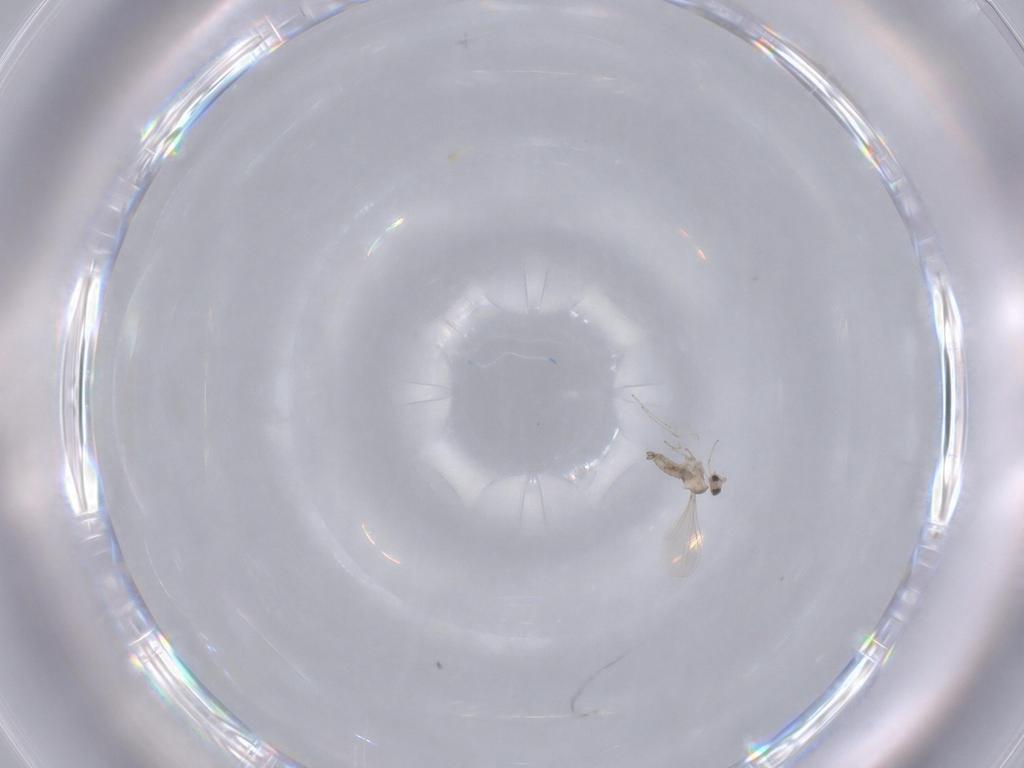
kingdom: Animalia
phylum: Arthropoda
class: Insecta
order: Diptera
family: Cecidomyiidae
